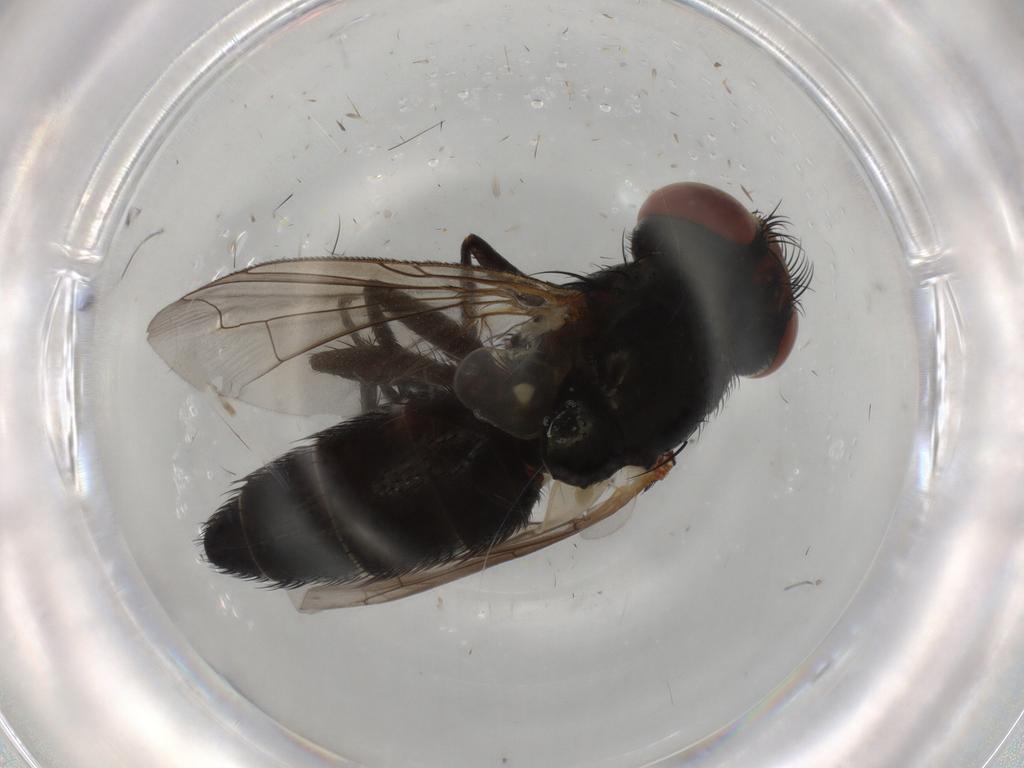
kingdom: Animalia
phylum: Arthropoda
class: Insecta
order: Diptera
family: Anthomyiidae
